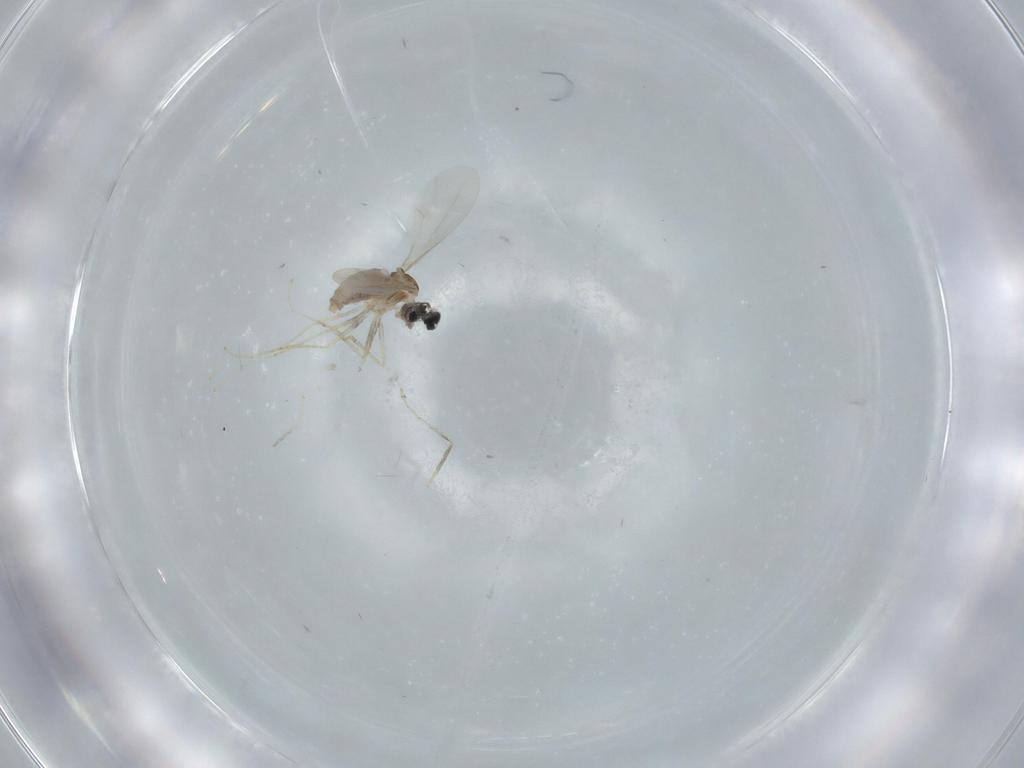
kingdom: Animalia
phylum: Arthropoda
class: Insecta
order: Diptera
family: Cecidomyiidae
